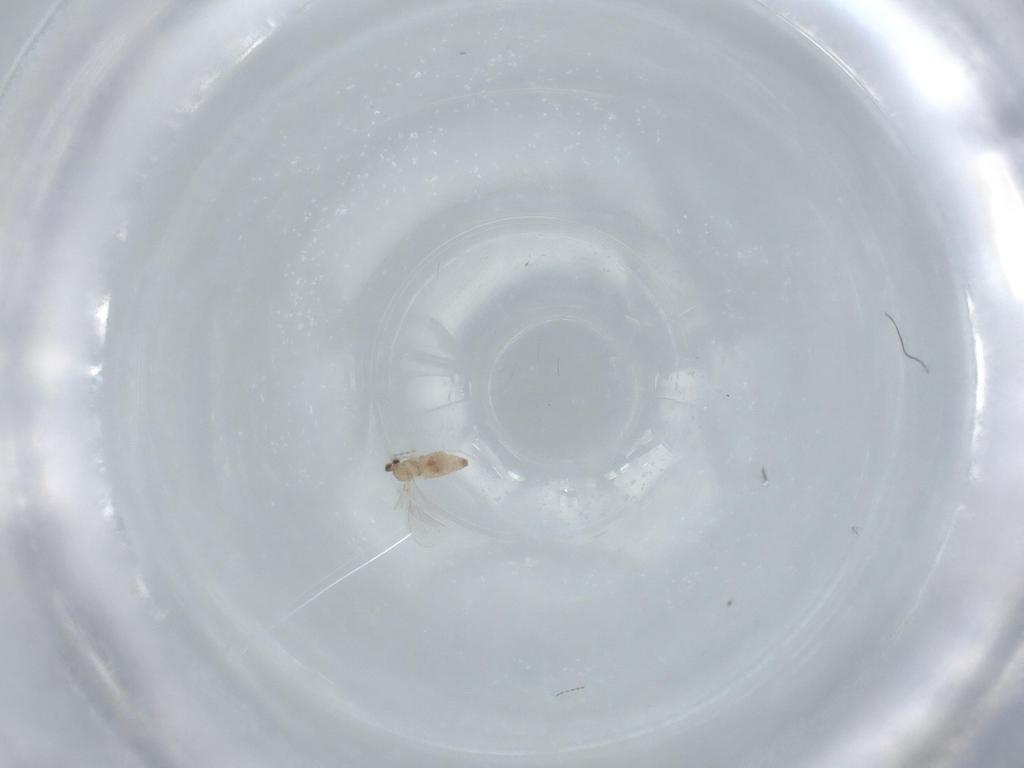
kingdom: Animalia
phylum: Arthropoda
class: Insecta
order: Diptera
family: Cecidomyiidae
